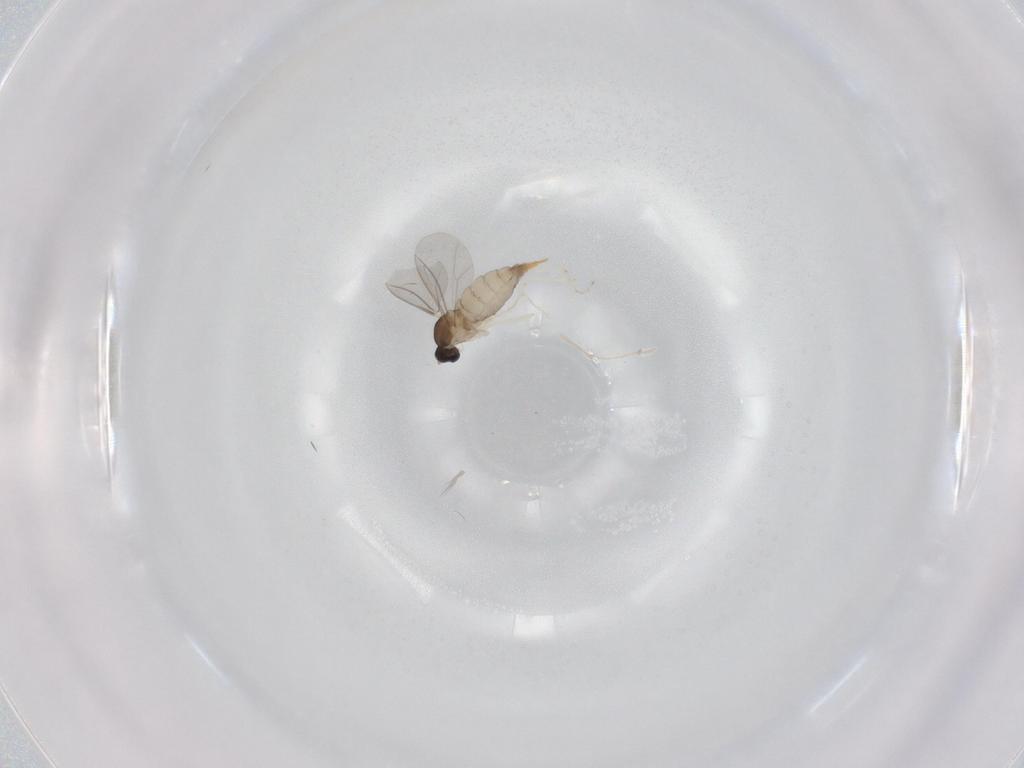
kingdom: Animalia
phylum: Arthropoda
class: Insecta
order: Diptera
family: Cecidomyiidae
